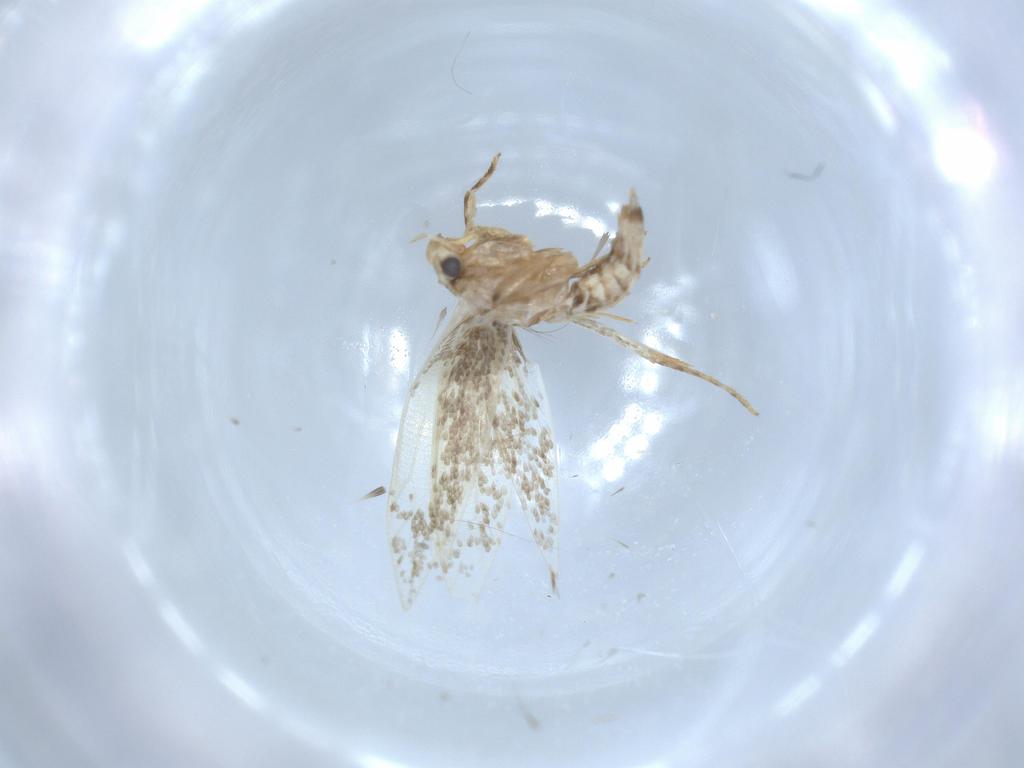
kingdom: Animalia
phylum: Arthropoda
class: Insecta
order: Lepidoptera
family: Tineidae
